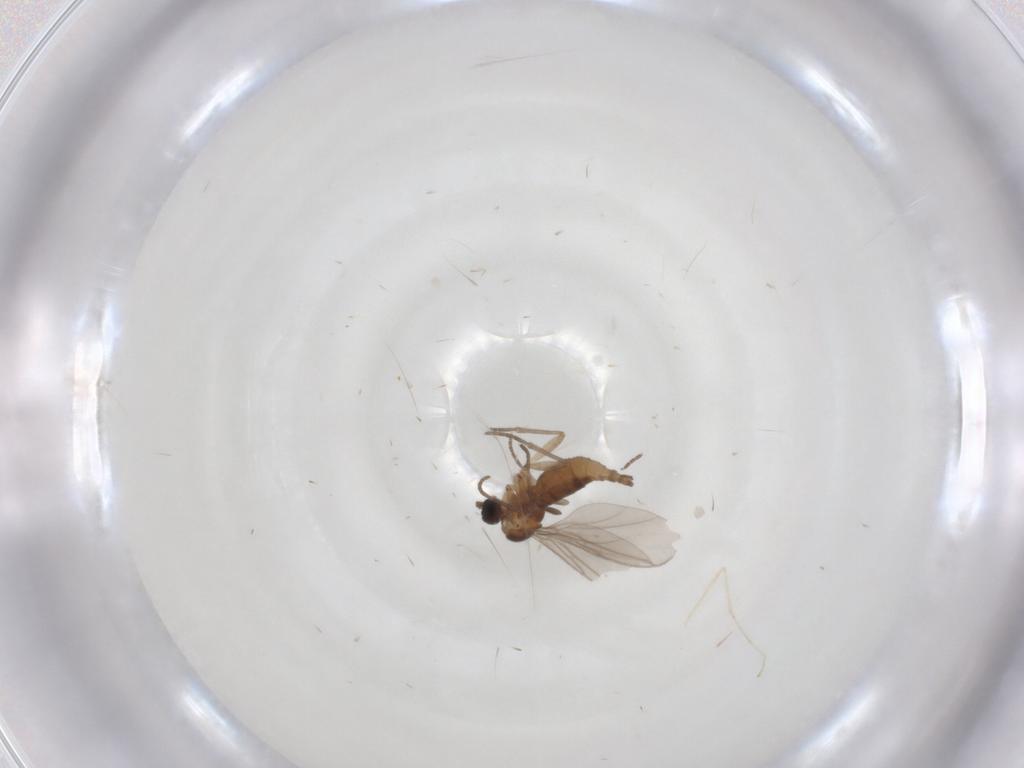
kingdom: Animalia
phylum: Arthropoda
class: Insecta
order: Diptera
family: Sciaridae
